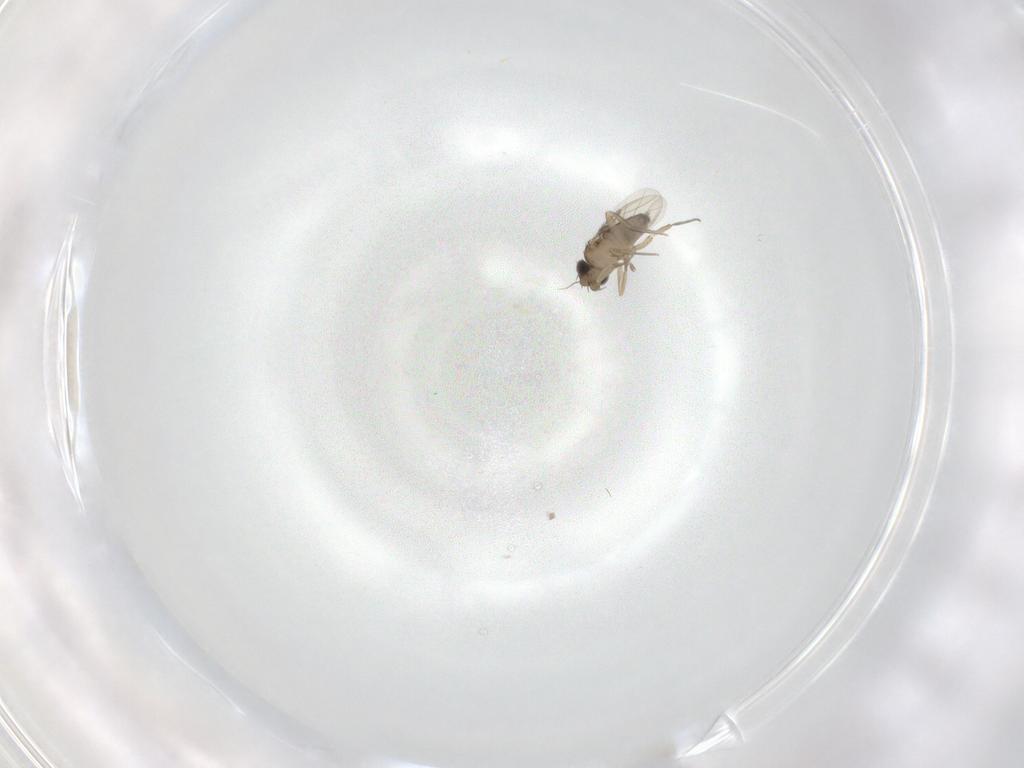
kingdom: Animalia
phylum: Arthropoda
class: Insecta
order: Diptera
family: Phoridae
